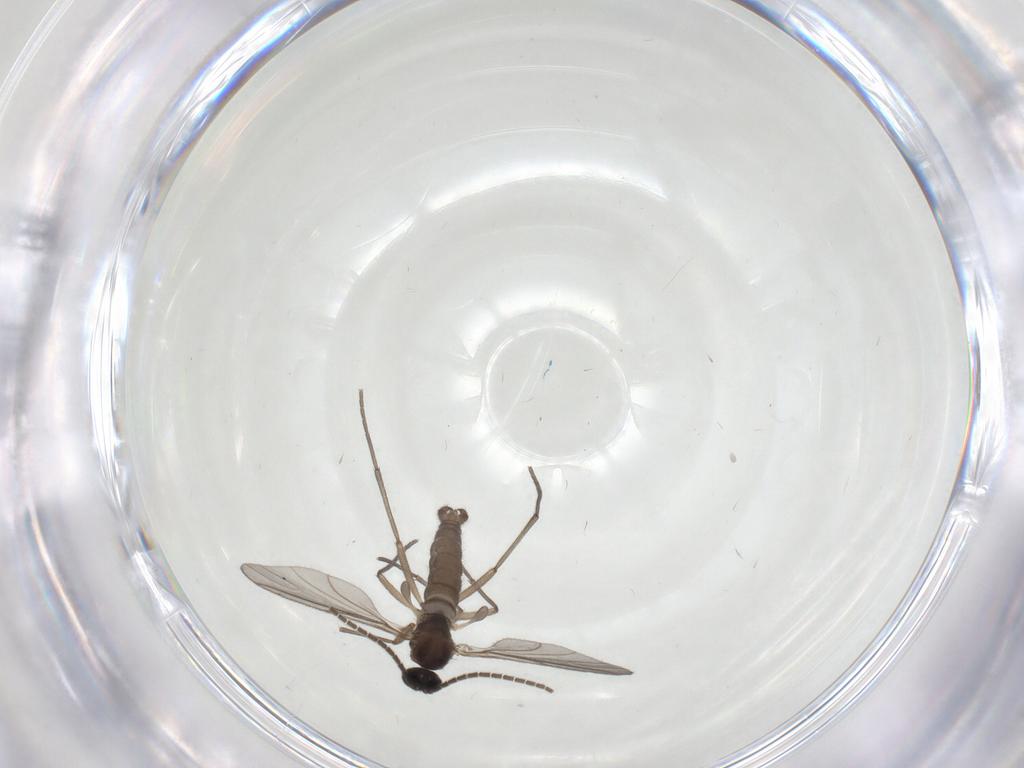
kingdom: Animalia
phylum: Arthropoda
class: Insecta
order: Diptera
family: Sciaridae
